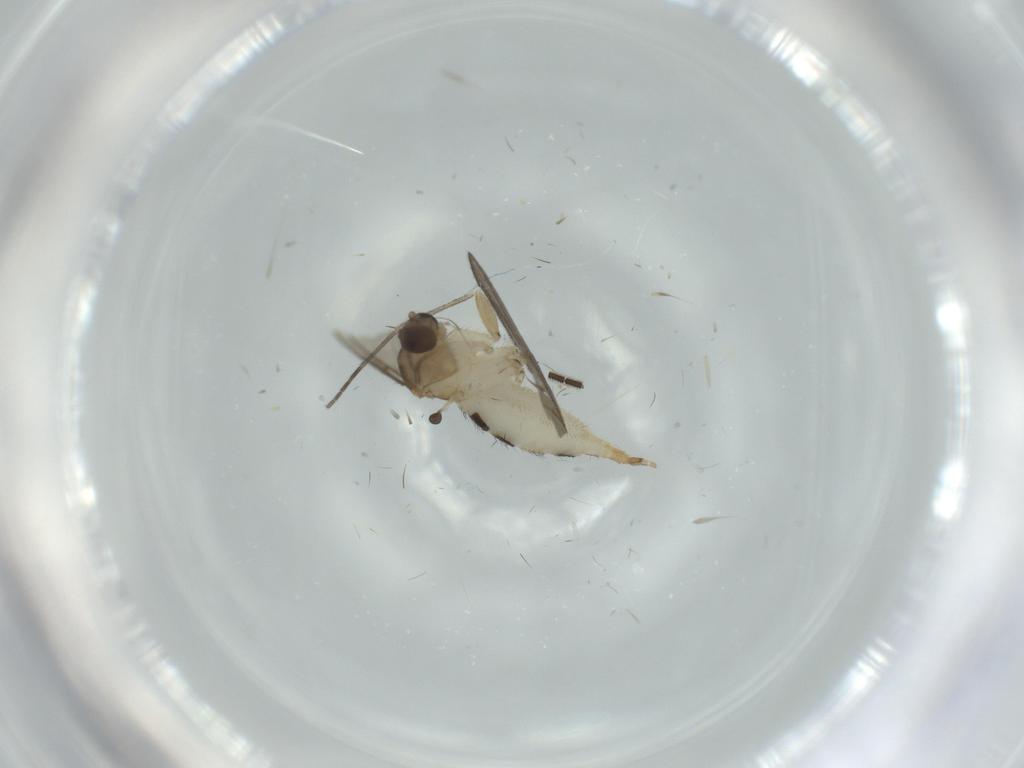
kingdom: Animalia
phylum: Arthropoda
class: Insecta
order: Diptera
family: Sciaridae
